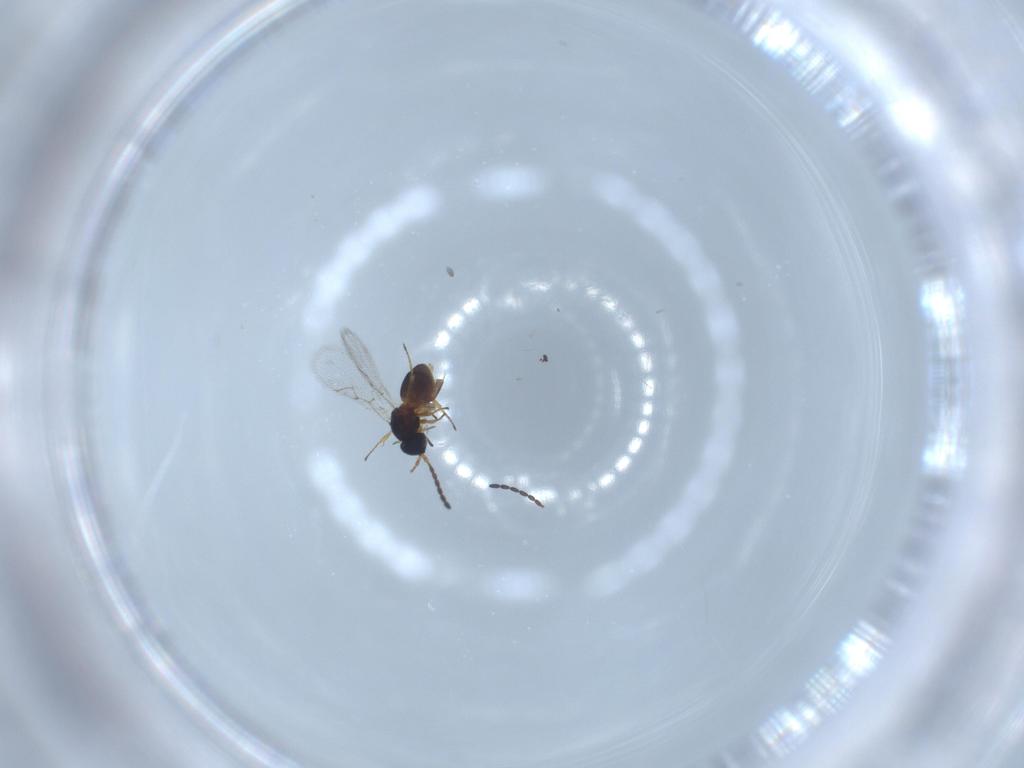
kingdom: Animalia
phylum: Arthropoda
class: Insecta
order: Hymenoptera
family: Figitidae
